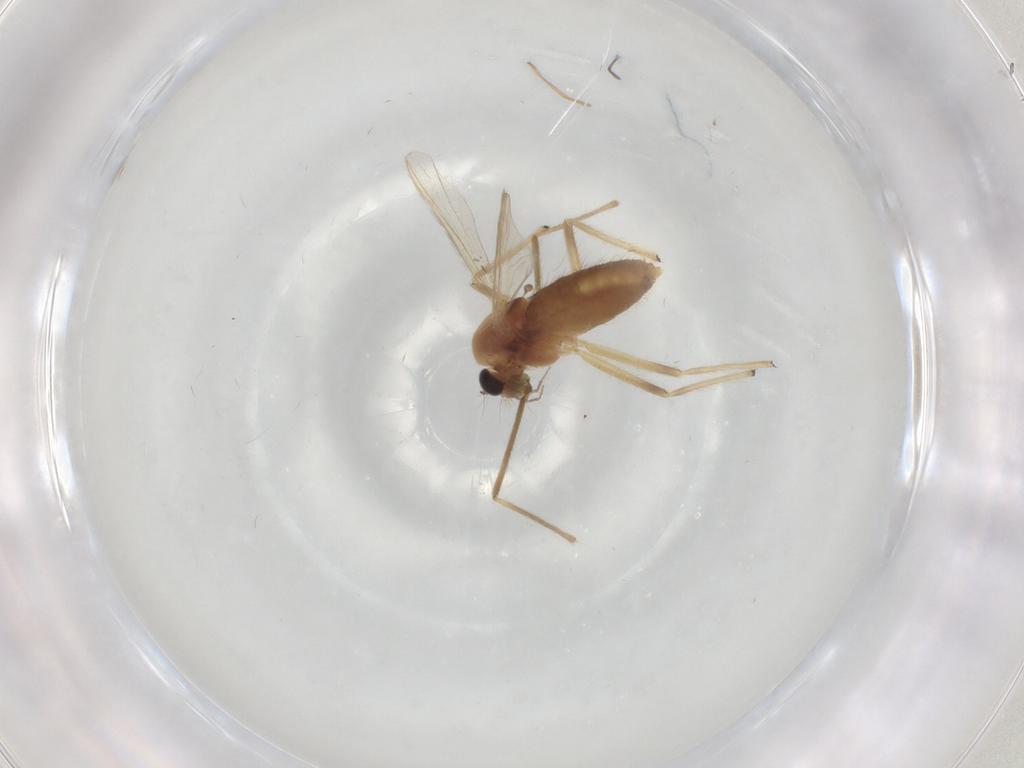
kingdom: Animalia
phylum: Arthropoda
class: Insecta
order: Diptera
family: Chironomidae
